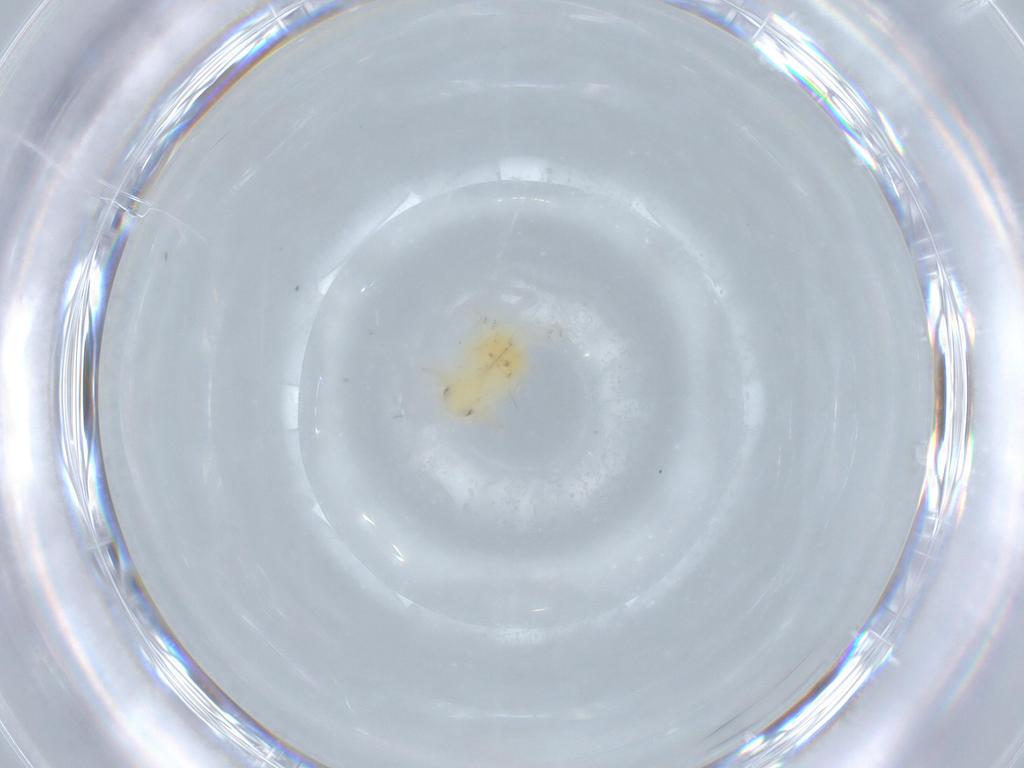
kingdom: Animalia
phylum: Arthropoda
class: Insecta
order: Hemiptera
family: Flatidae
